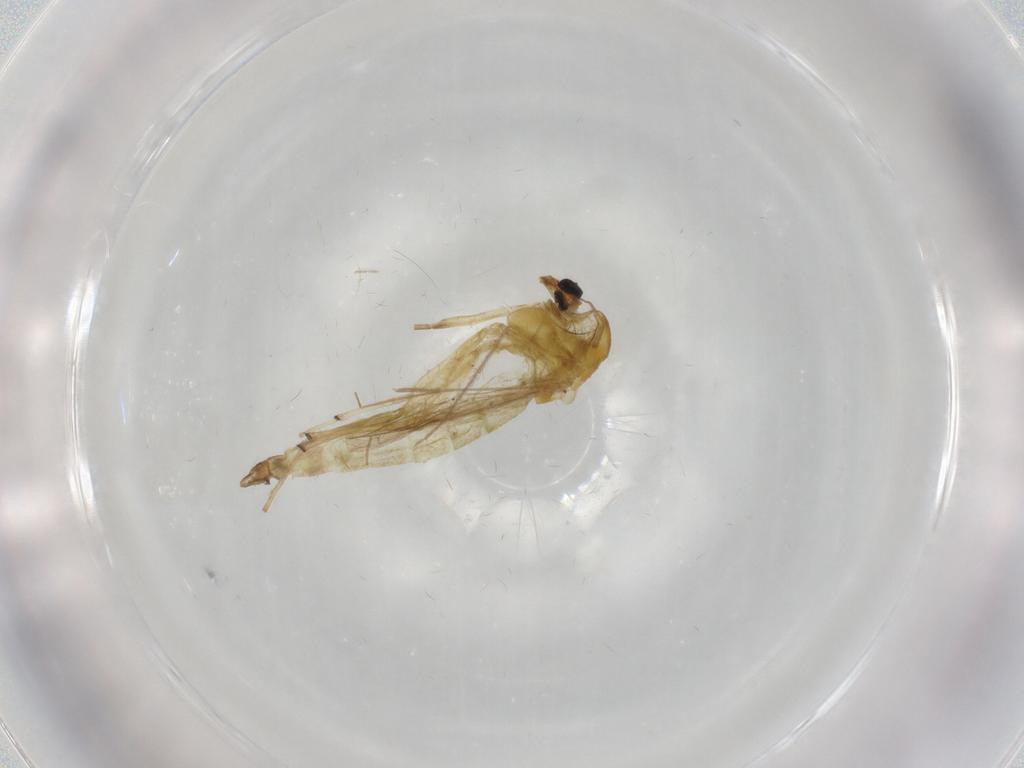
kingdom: Animalia
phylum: Arthropoda
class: Insecta
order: Diptera
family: Chironomidae
